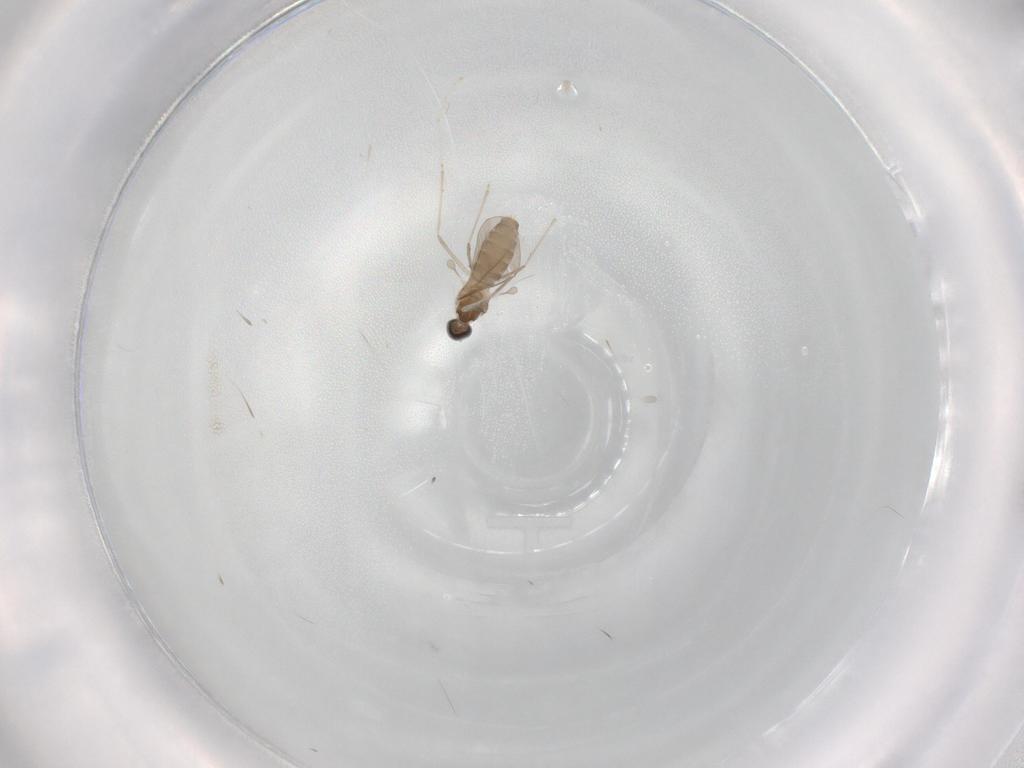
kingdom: Animalia
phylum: Arthropoda
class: Insecta
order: Diptera
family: Cecidomyiidae
